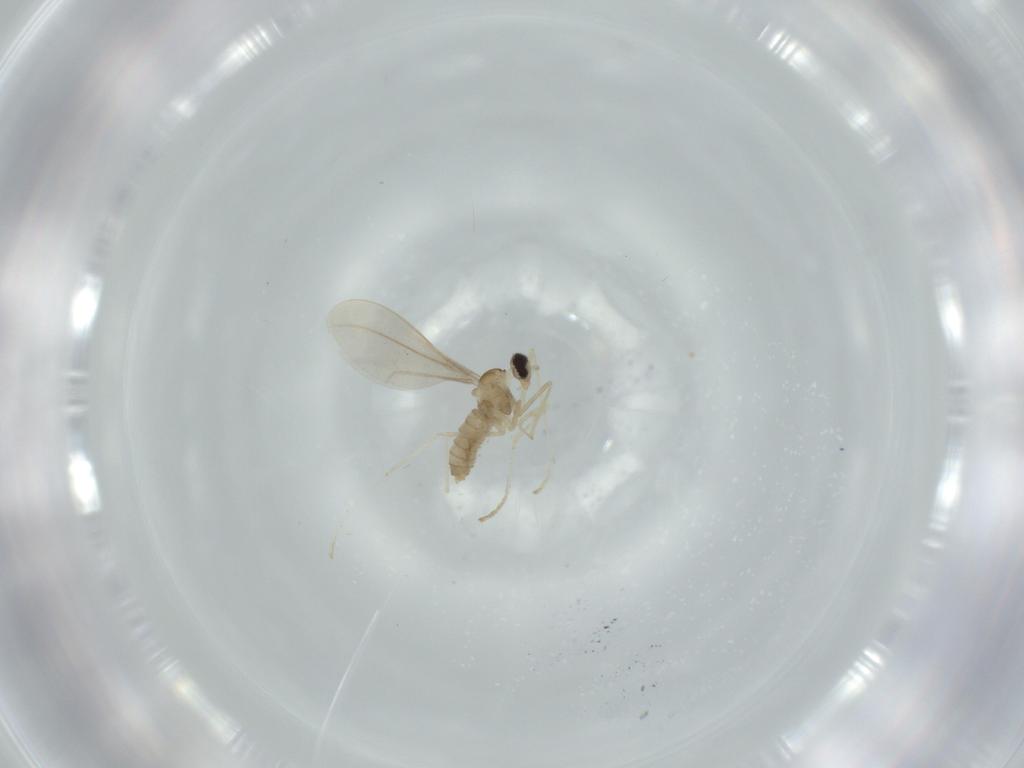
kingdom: Animalia
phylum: Arthropoda
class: Insecta
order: Diptera
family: Cecidomyiidae
